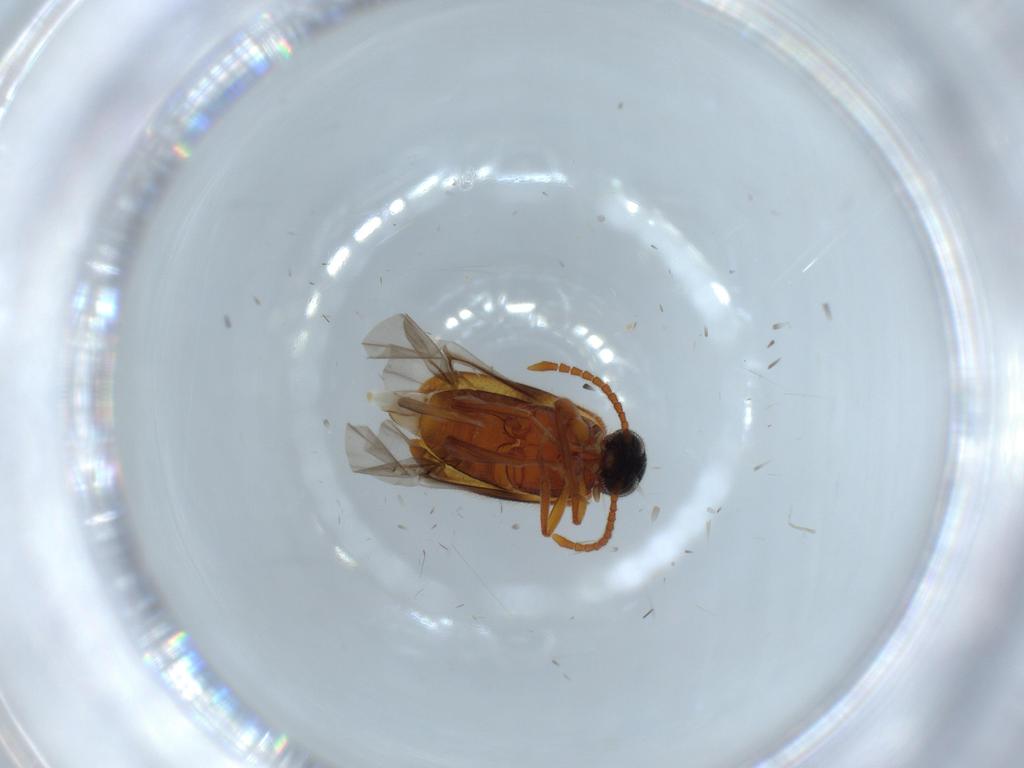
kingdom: Animalia
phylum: Arthropoda
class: Insecta
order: Coleoptera
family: Aderidae
